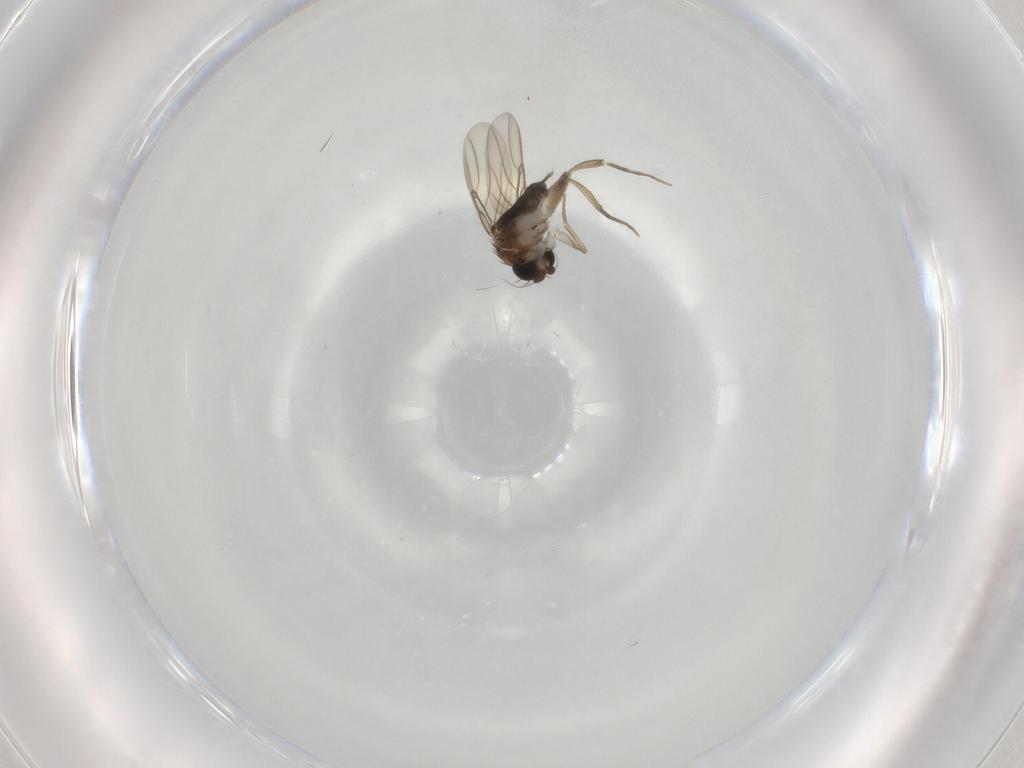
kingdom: Animalia
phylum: Arthropoda
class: Insecta
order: Diptera
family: Phoridae
